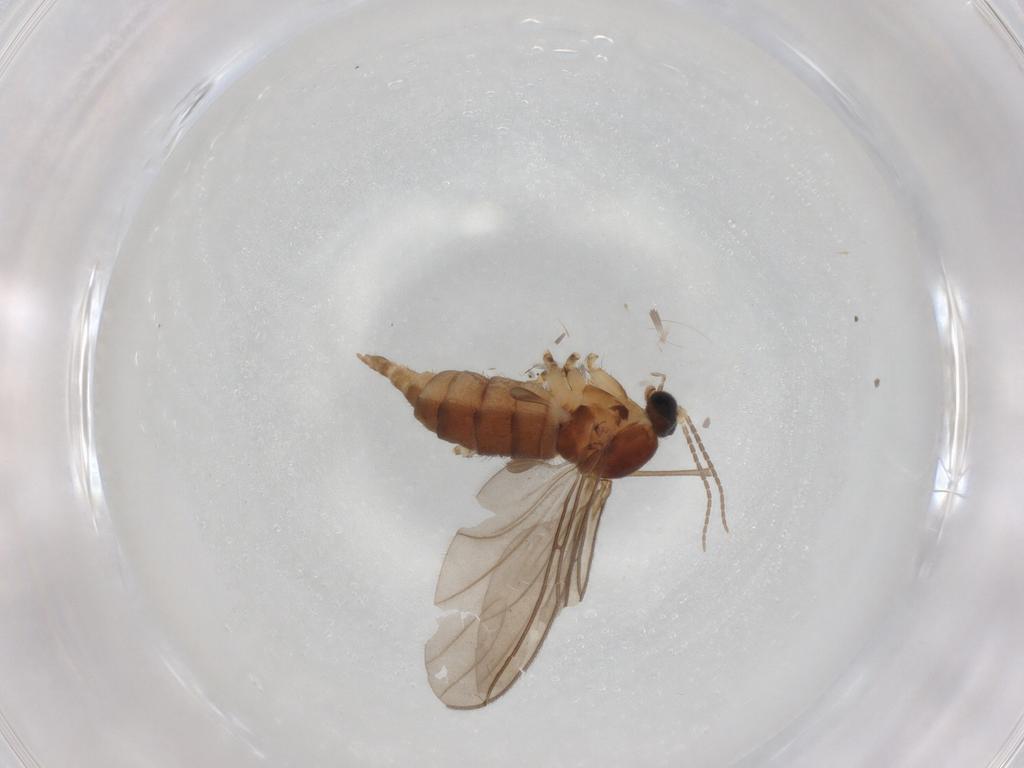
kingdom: Animalia
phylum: Arthropoda
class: Insecta
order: Diptera
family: Sciaridae
